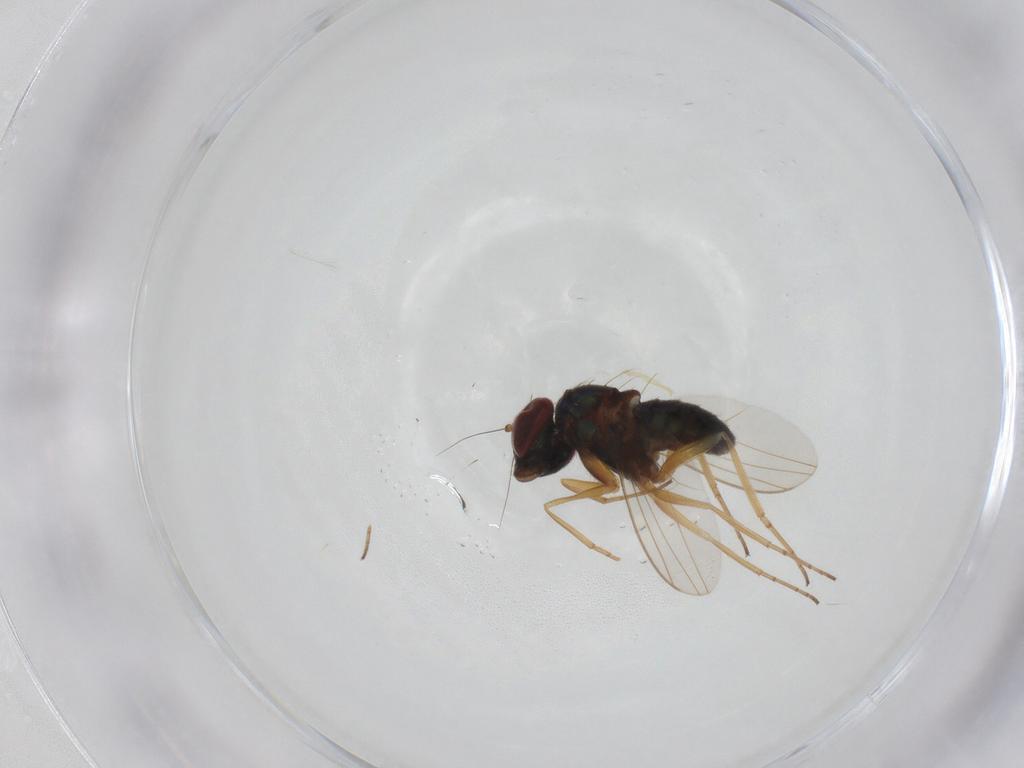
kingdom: Animalia
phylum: Arthropoda
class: Insecta
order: Diptera
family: Dolichopodidae
